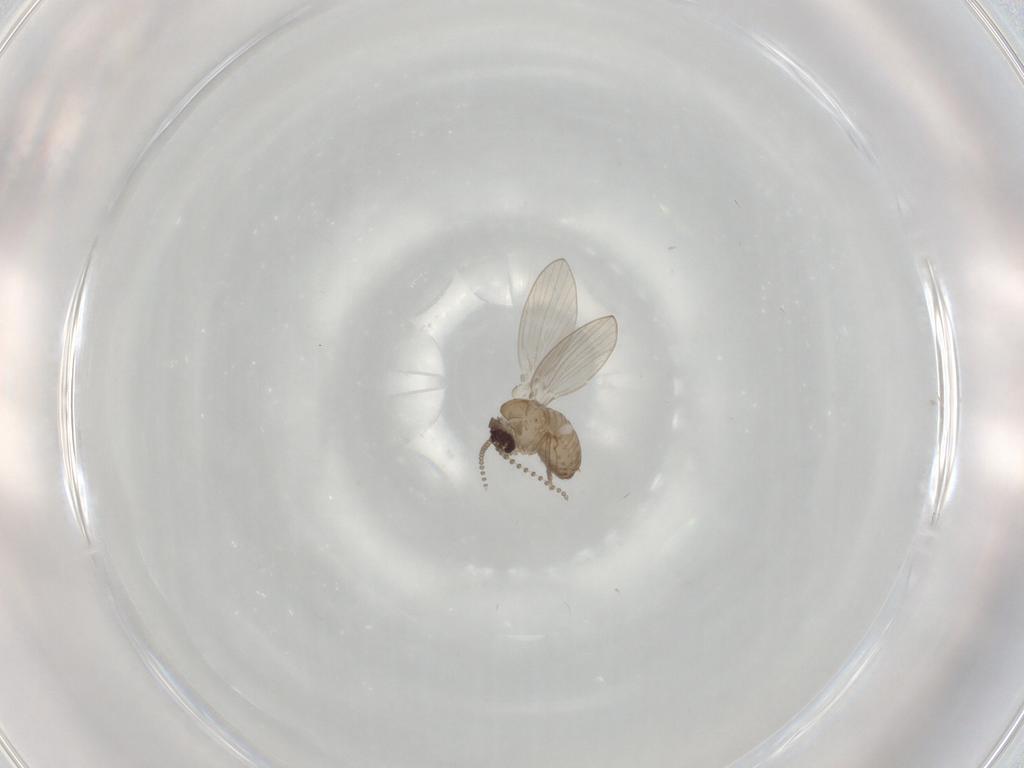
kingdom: Animalia
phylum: Arthropoda
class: Insecta
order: Diptera
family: Psychodidae
